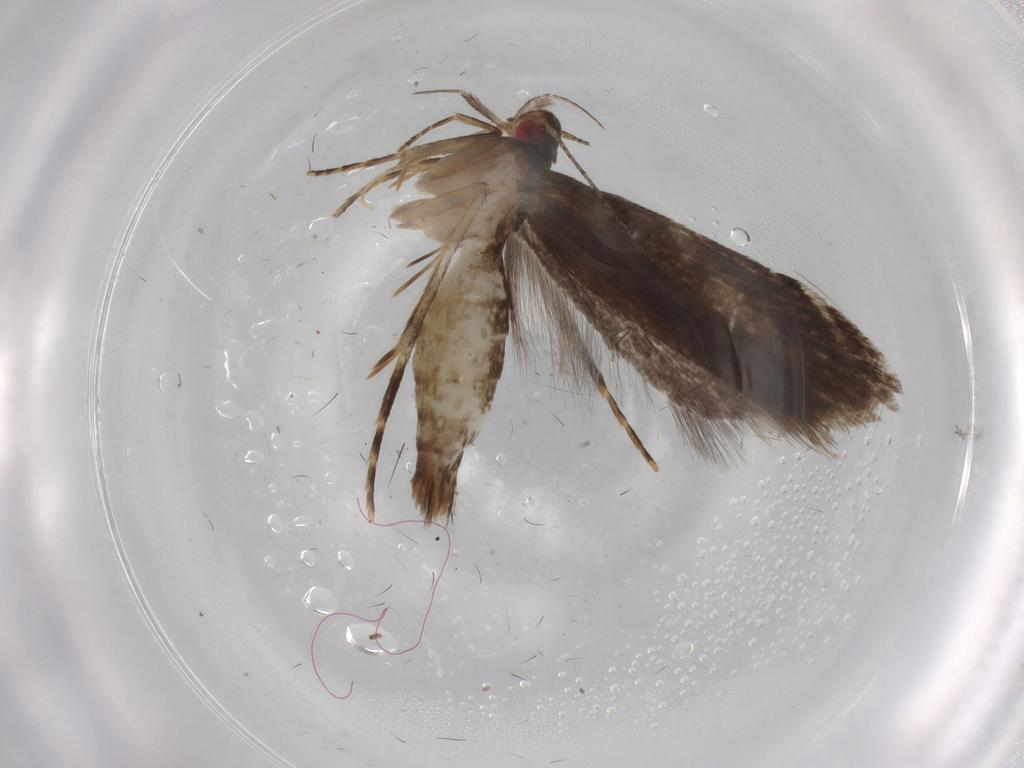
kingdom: Animalia
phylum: Arthropoda
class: Insecta
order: Lepidoptera
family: Gelechiidae
